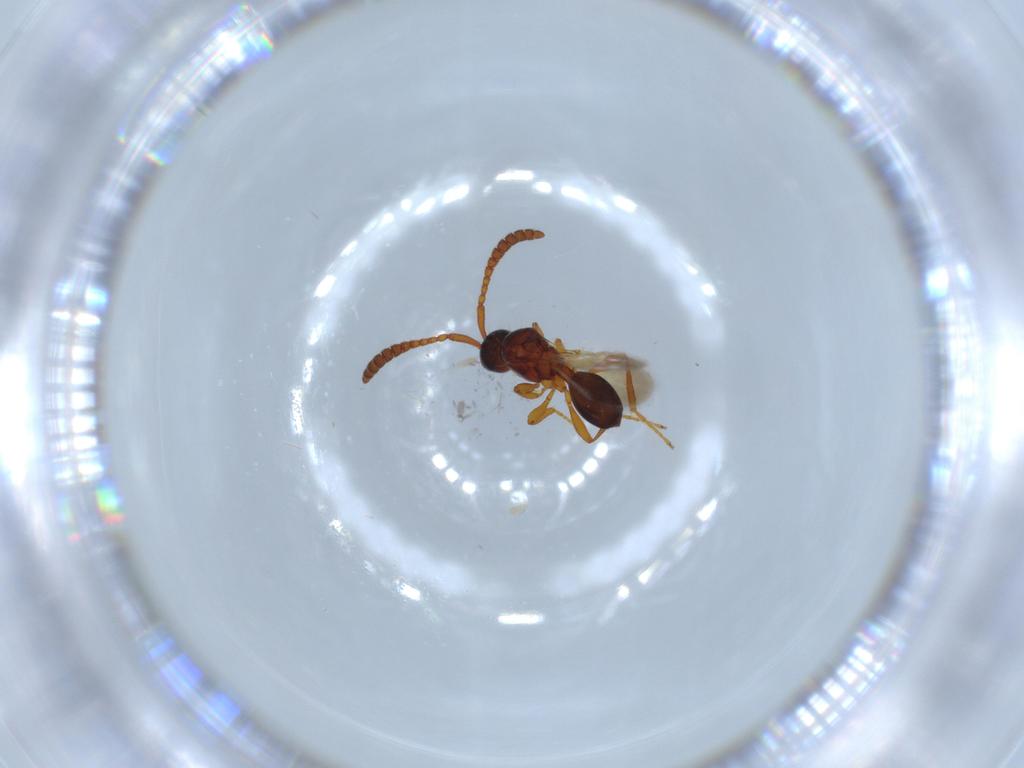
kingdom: Animalia
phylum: Arthropoda
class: Insecta
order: Hymenoptera
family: Diapriidae
